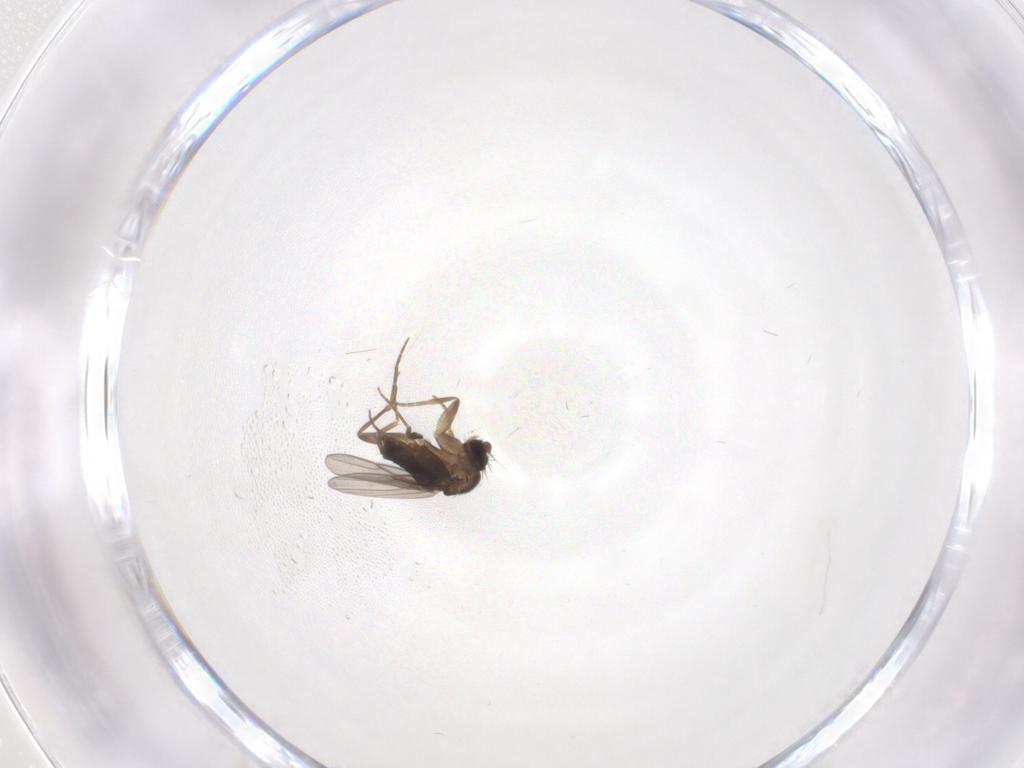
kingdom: Animalia
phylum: Arthropoda
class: Insecta
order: Diptera
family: Phoridae
